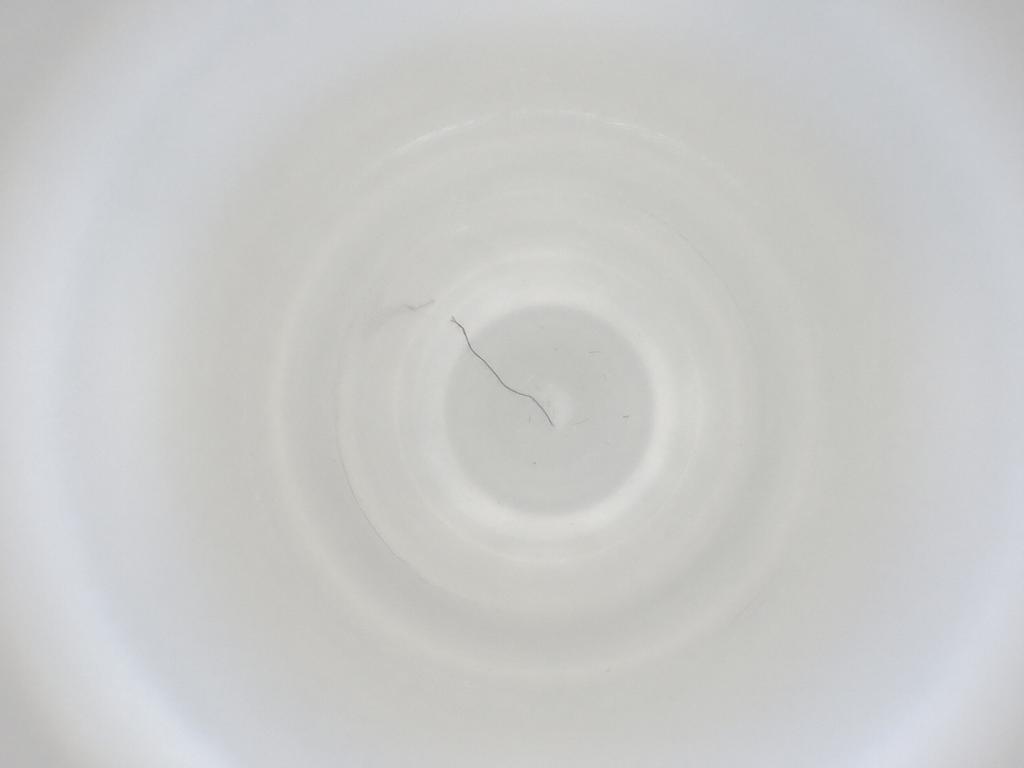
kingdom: Animalia
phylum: Arthropoda
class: Insecta
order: Diptera
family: Cecidomyiidae
